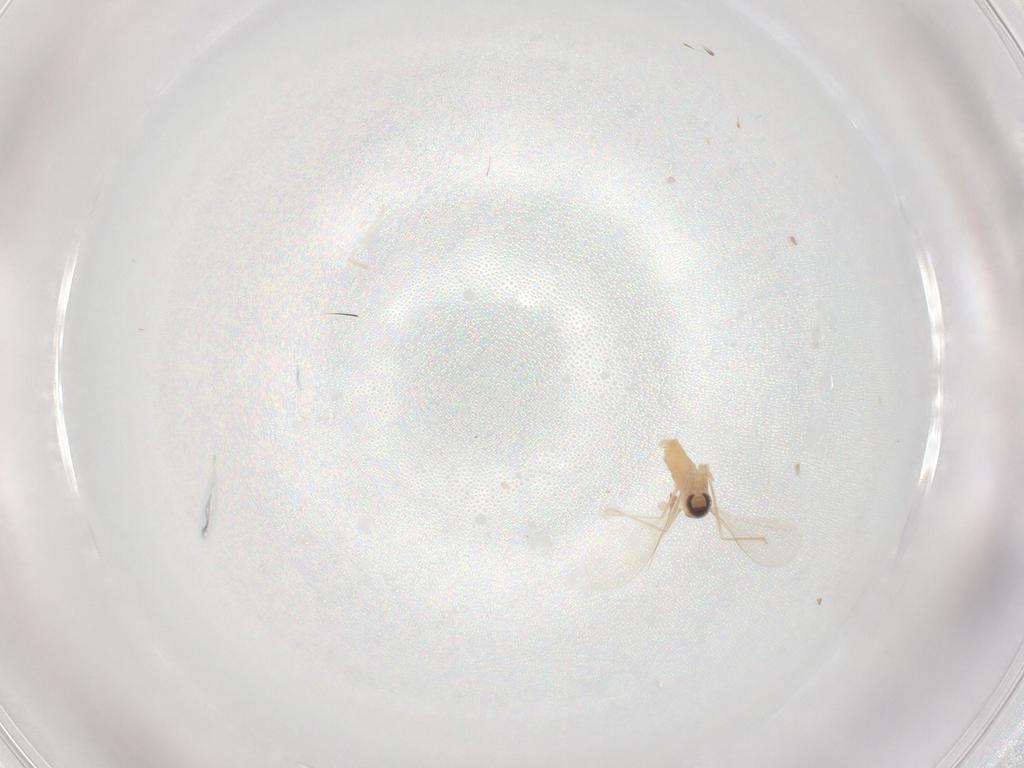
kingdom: Animalia
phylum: Arthropoda
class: Insecta
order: Diptera
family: Cecidomyiidae
